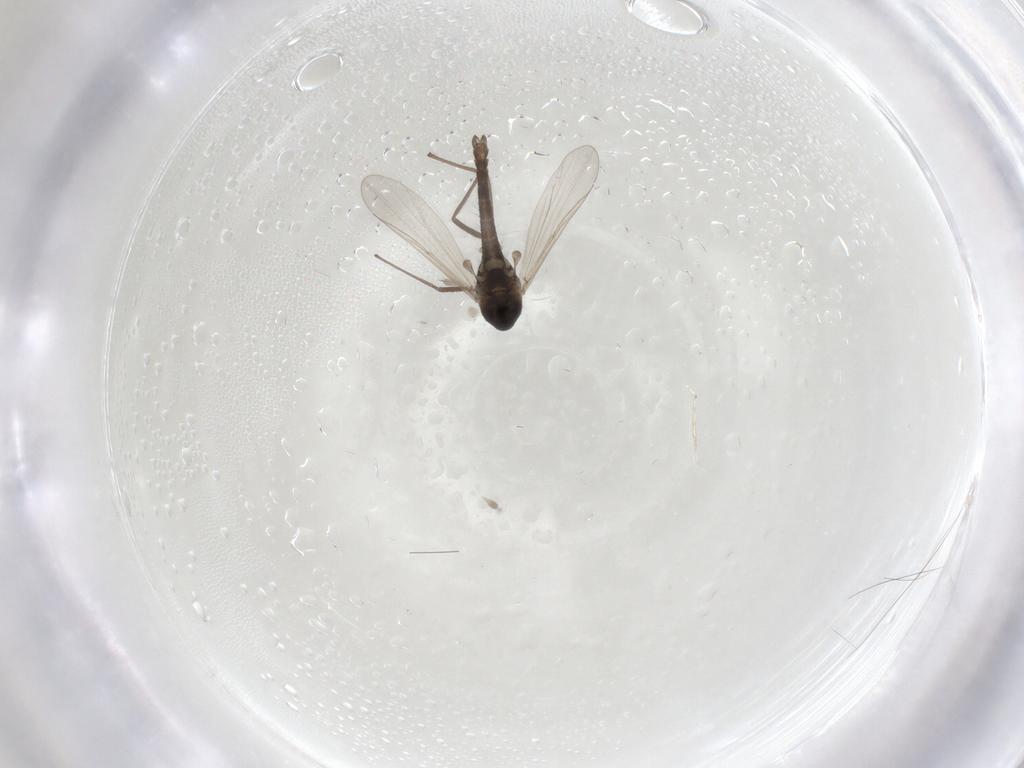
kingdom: Animalia
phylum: Arthropoda
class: Insecta
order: Diptera
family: Chironomidae
